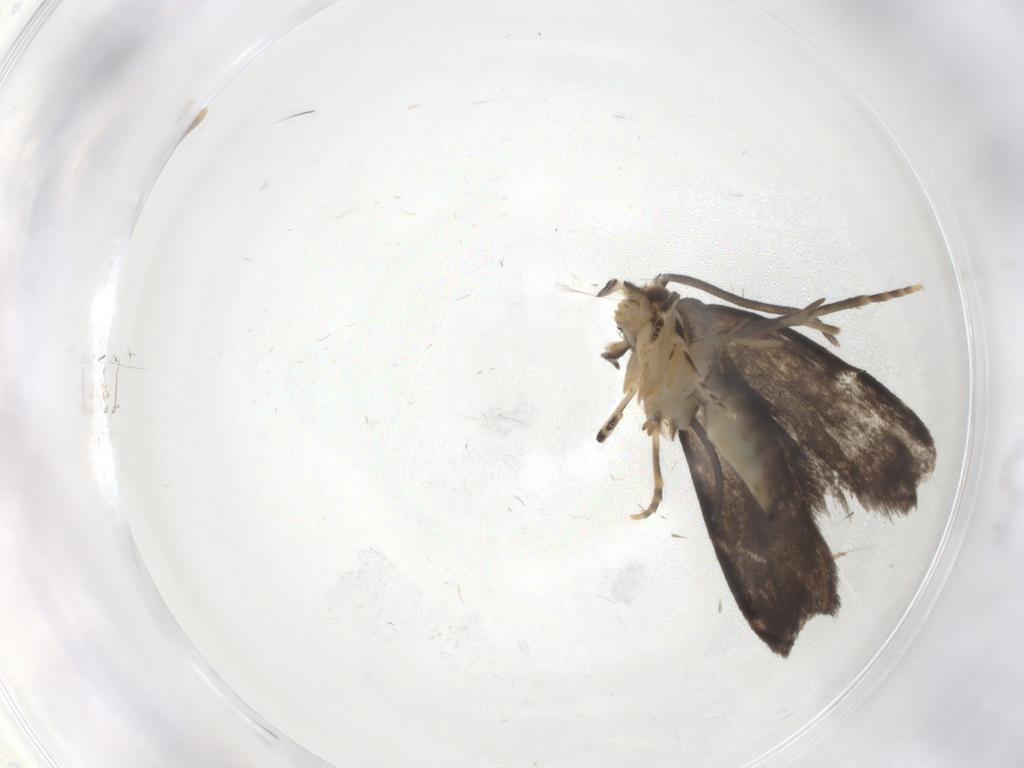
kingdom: Animalia
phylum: Arthropoda
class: Insecta
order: Lepidoptera
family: Dryadaulidae
